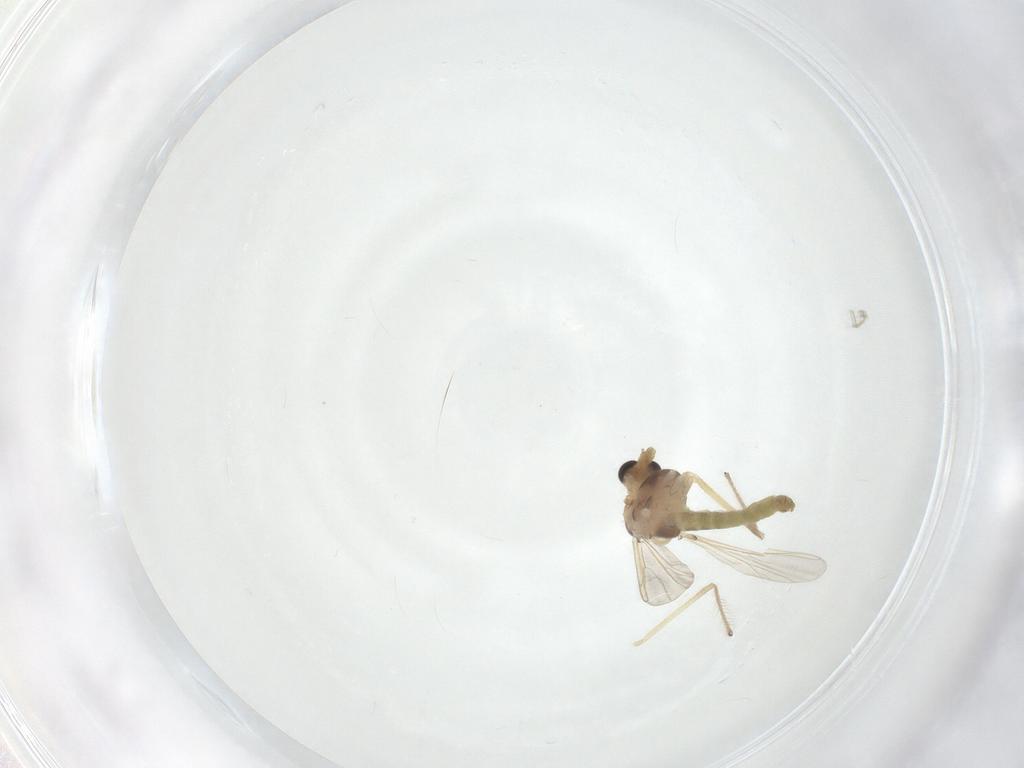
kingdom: Animalia
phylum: Arthropoda
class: Insecta
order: Diptera
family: Chironomidae
